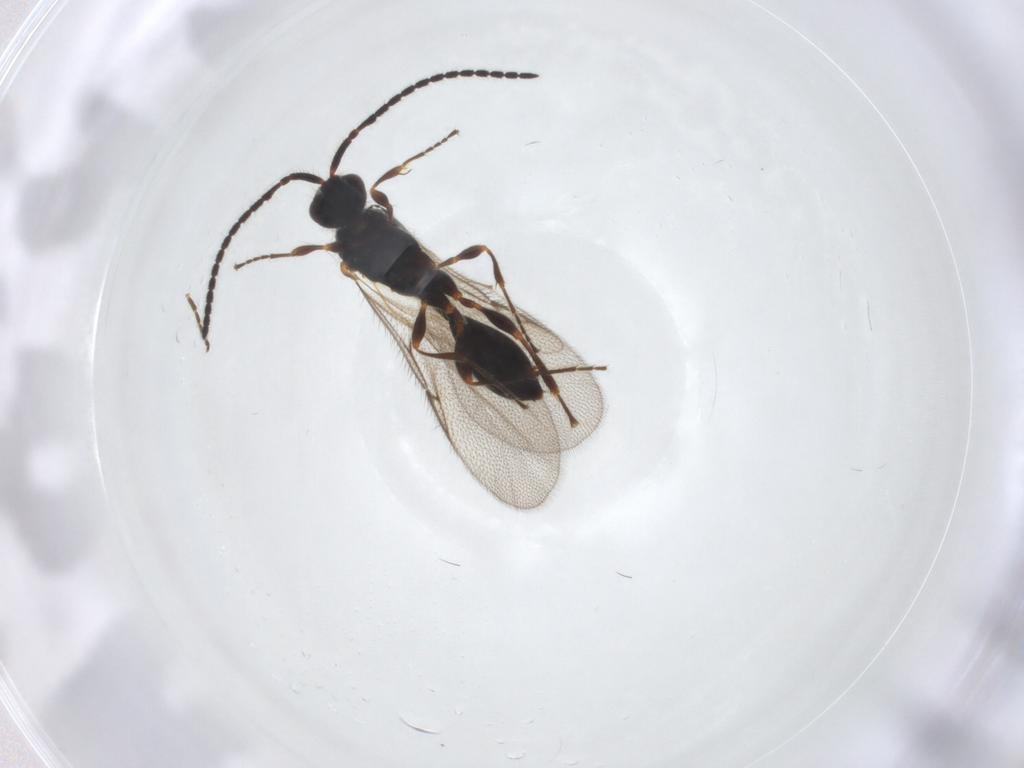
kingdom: Animalia
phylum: Arthropoda
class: Insecta
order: Hymenoptera
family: Diapriidae
